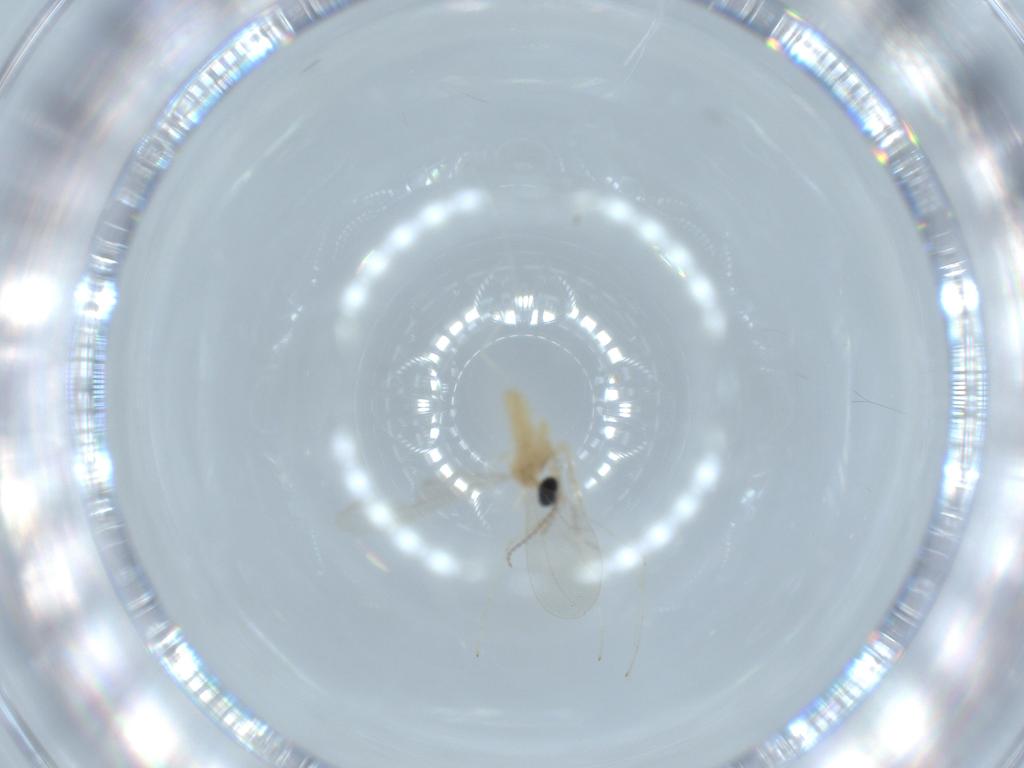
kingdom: Animalia
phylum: Arthropoda
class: Insecta
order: Diptera
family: Cecidomyiidae
